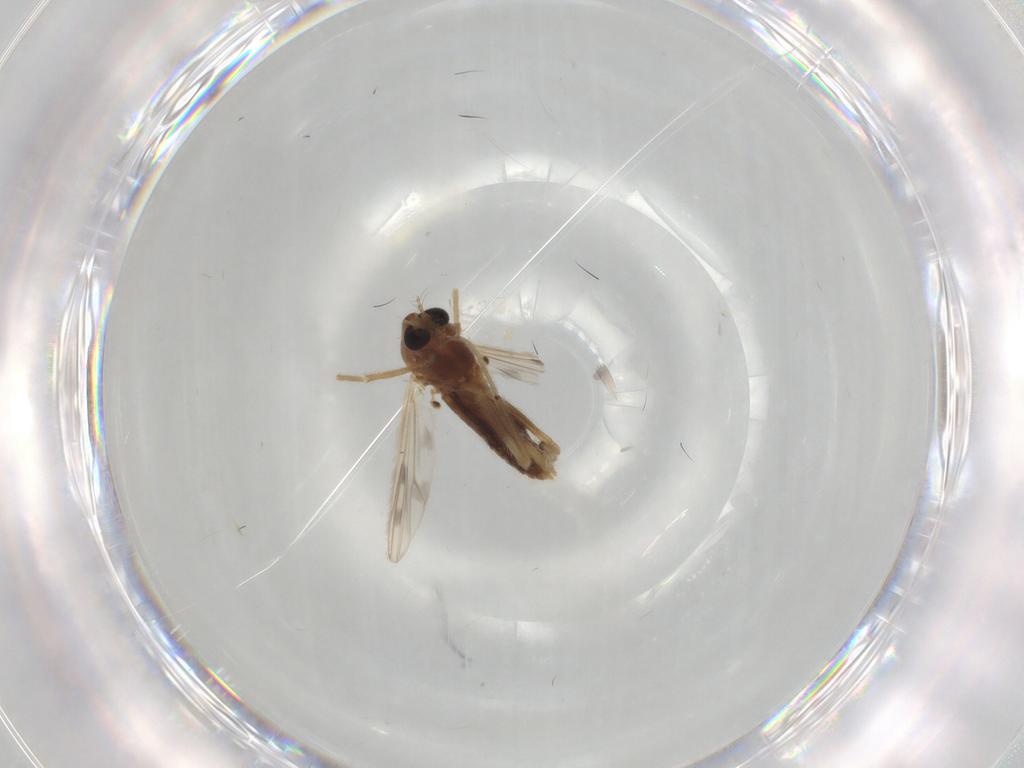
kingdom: Animalia
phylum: Arthropoda
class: Insecta
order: Diptera
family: Chironomidae
